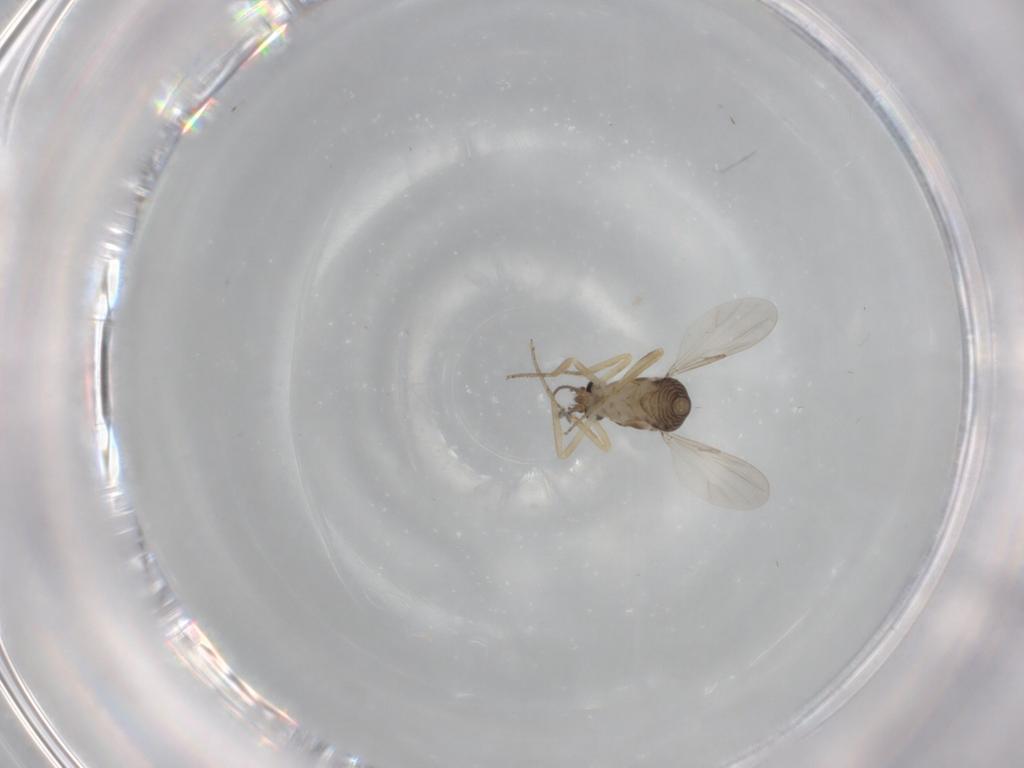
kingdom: Animalia
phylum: Arthropoda
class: Insecta
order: Diptera
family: Ceratopogonidae
